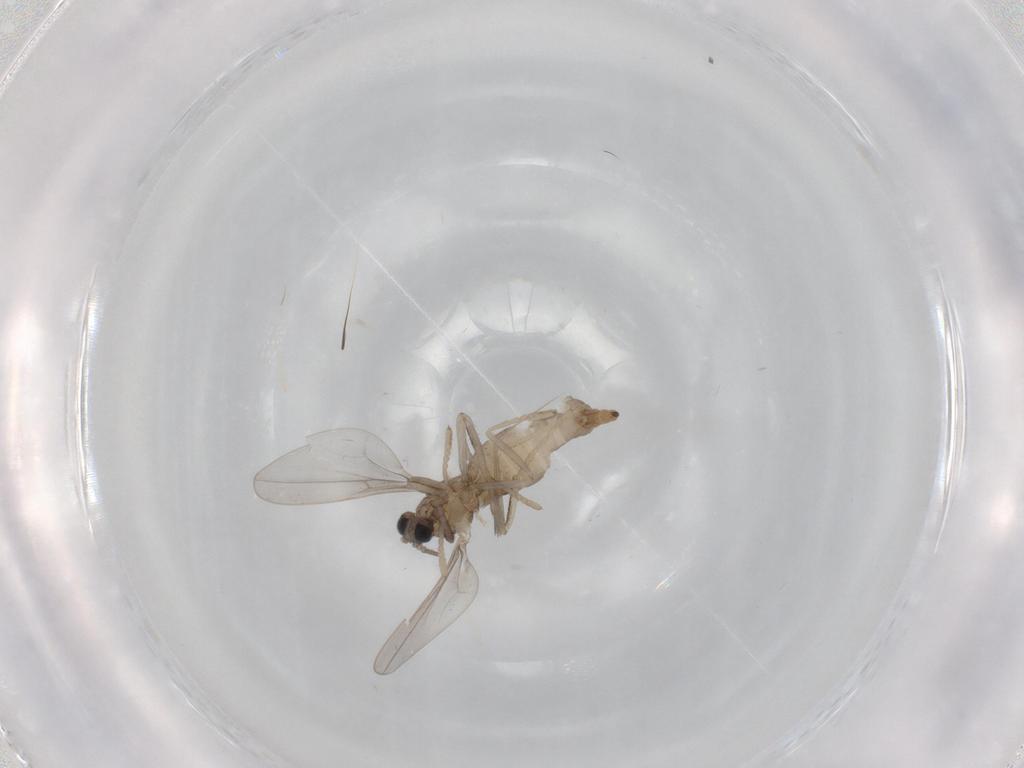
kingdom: Animalia
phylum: Arthropoda
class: Insecta
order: Diptera
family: Cecidomyiidae
